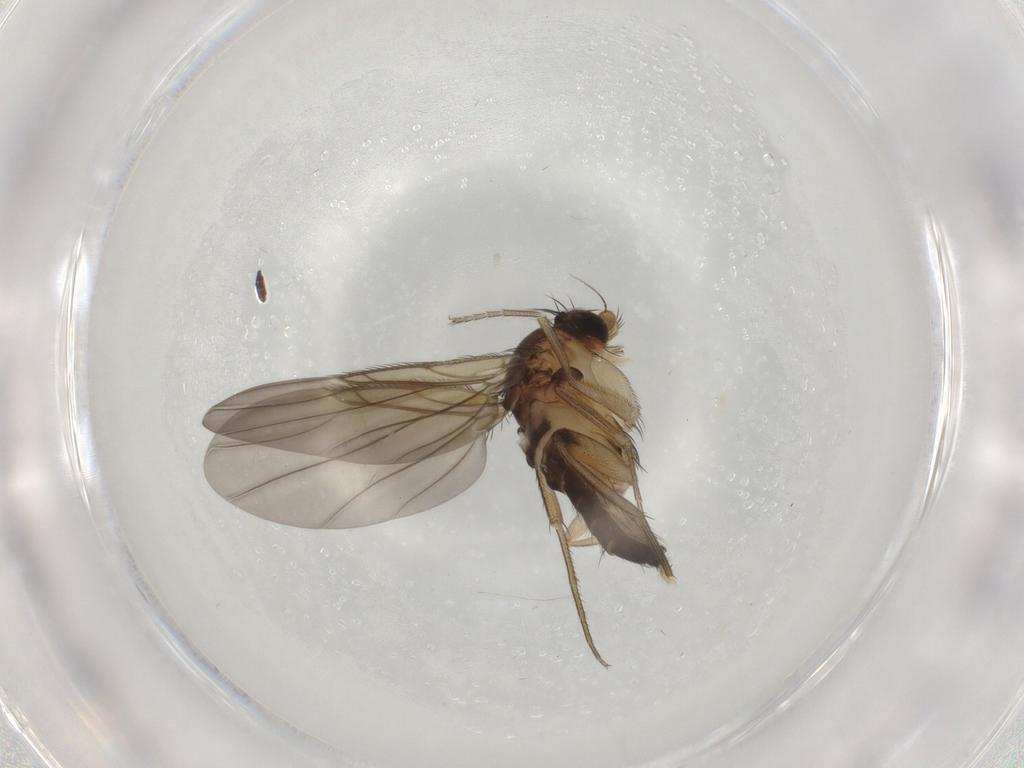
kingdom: Animalia
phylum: Arthropoda
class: Insecta
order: Diptera
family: Phoridae
